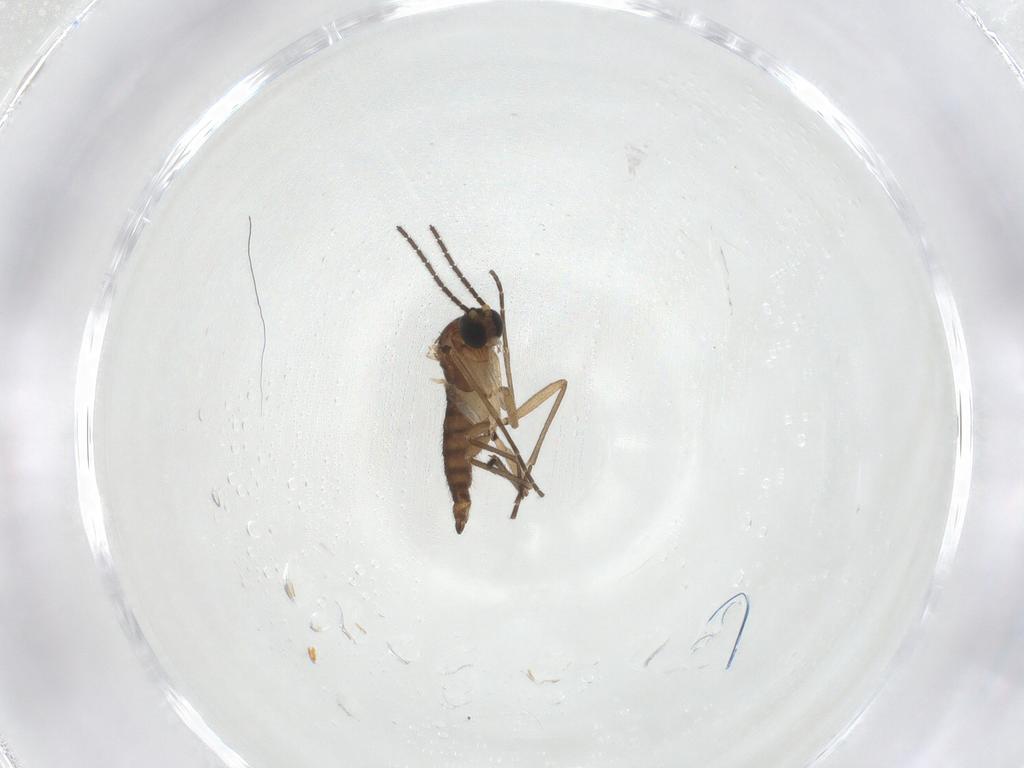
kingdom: Animalia
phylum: Arthropoda
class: Insecta
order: Diptera
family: Sciaridae
